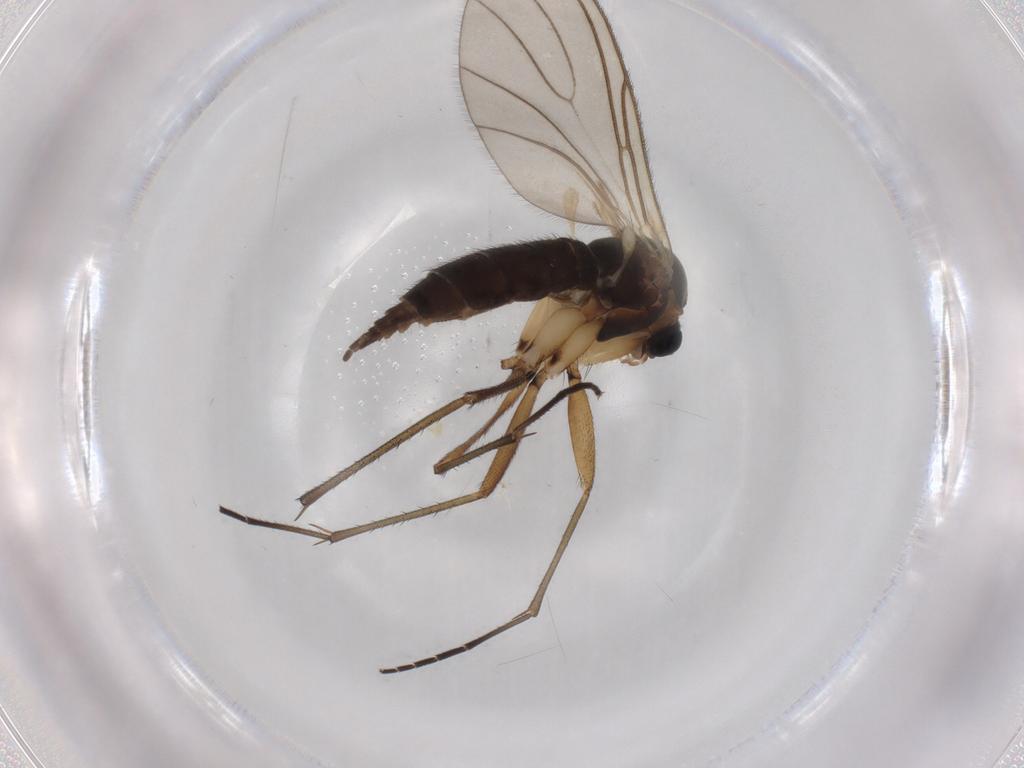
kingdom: Animalia
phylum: Arthropoda
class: Insecta
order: Diptera
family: Sciaridae
